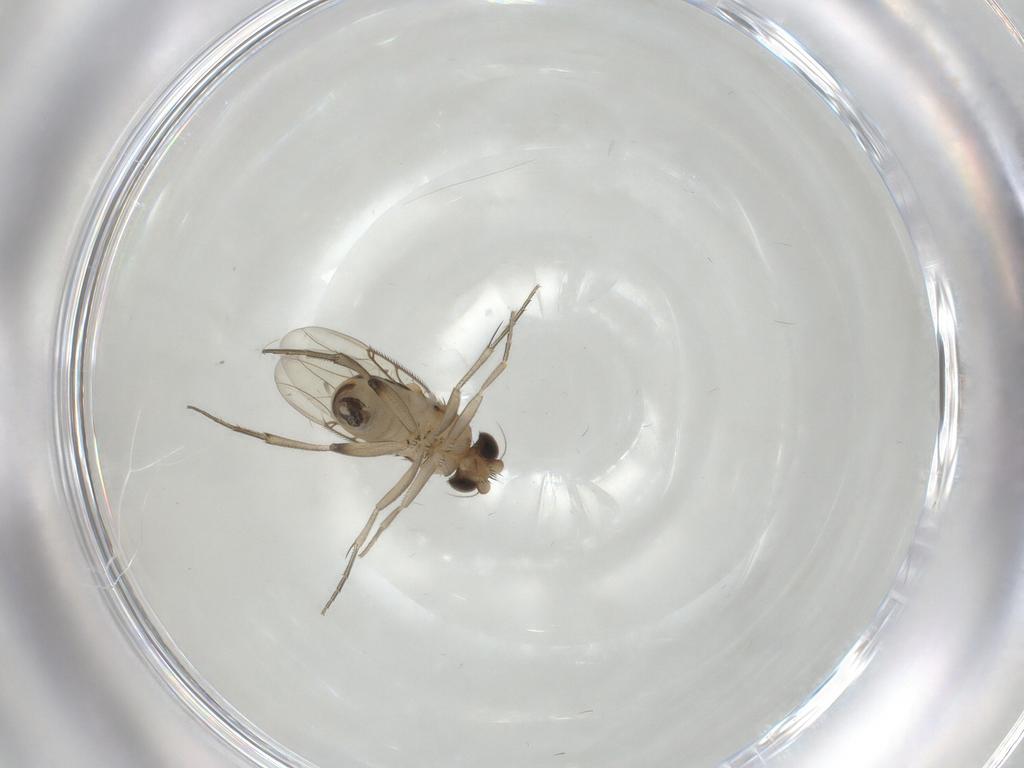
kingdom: Animalia
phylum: Arthropoda
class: Insecta
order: Diptera
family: Phoridae
